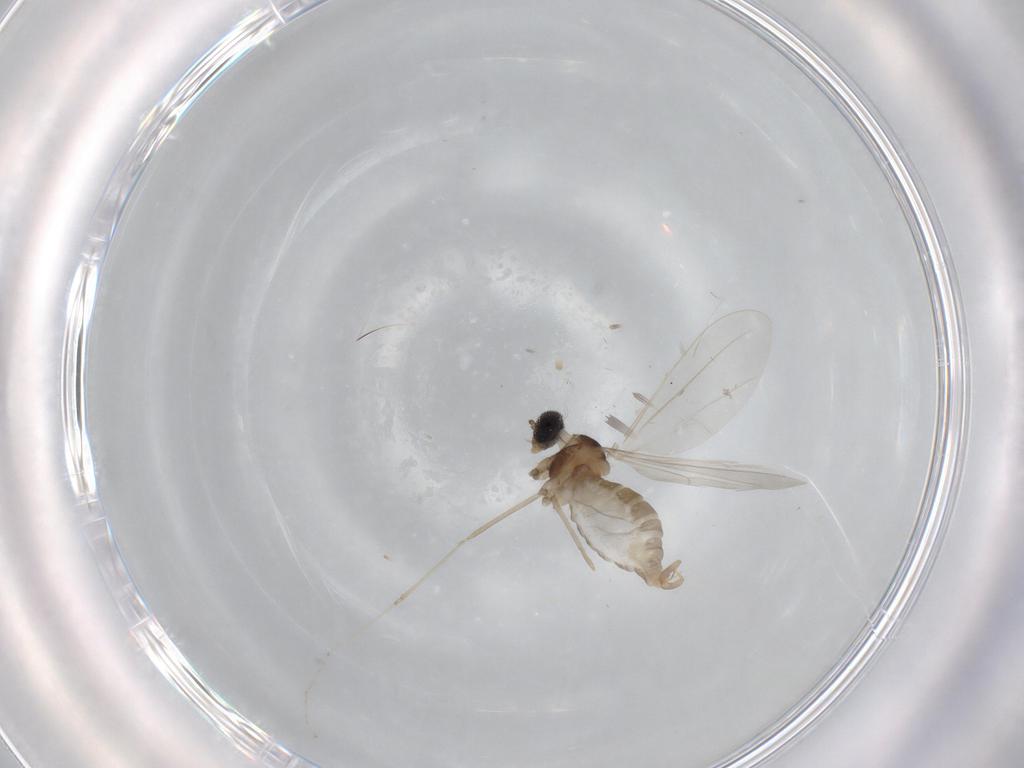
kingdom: Animalia
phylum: Arthropoda
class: Insecta
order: Diptera
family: Cecidomyiidae
